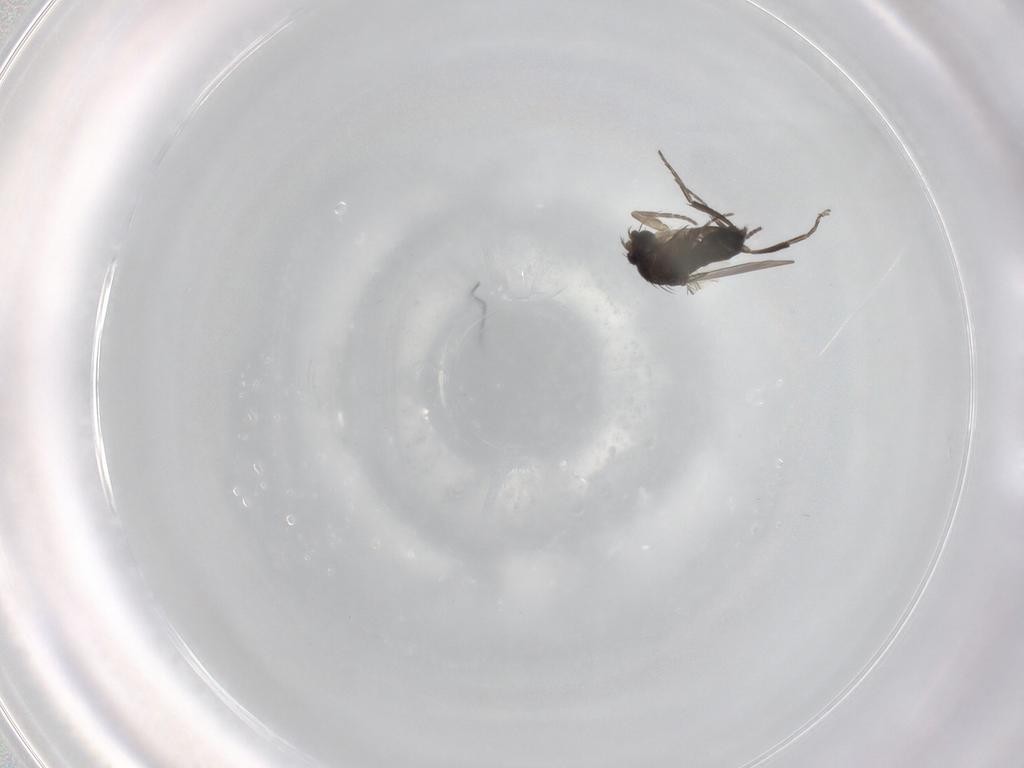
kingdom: Animalia
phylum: Arthropoda
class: Insecta
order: Diptera
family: Phoridae
